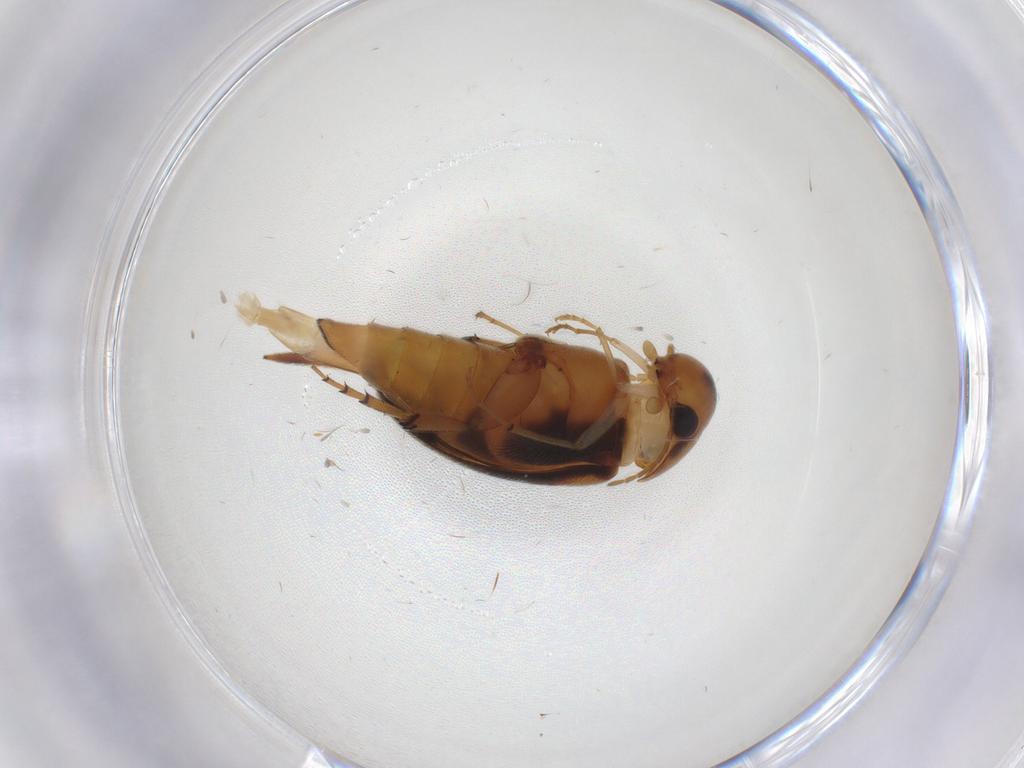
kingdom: Animalia
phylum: Arthropoda
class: Insecta
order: Coleoptera
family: Mordellidae
